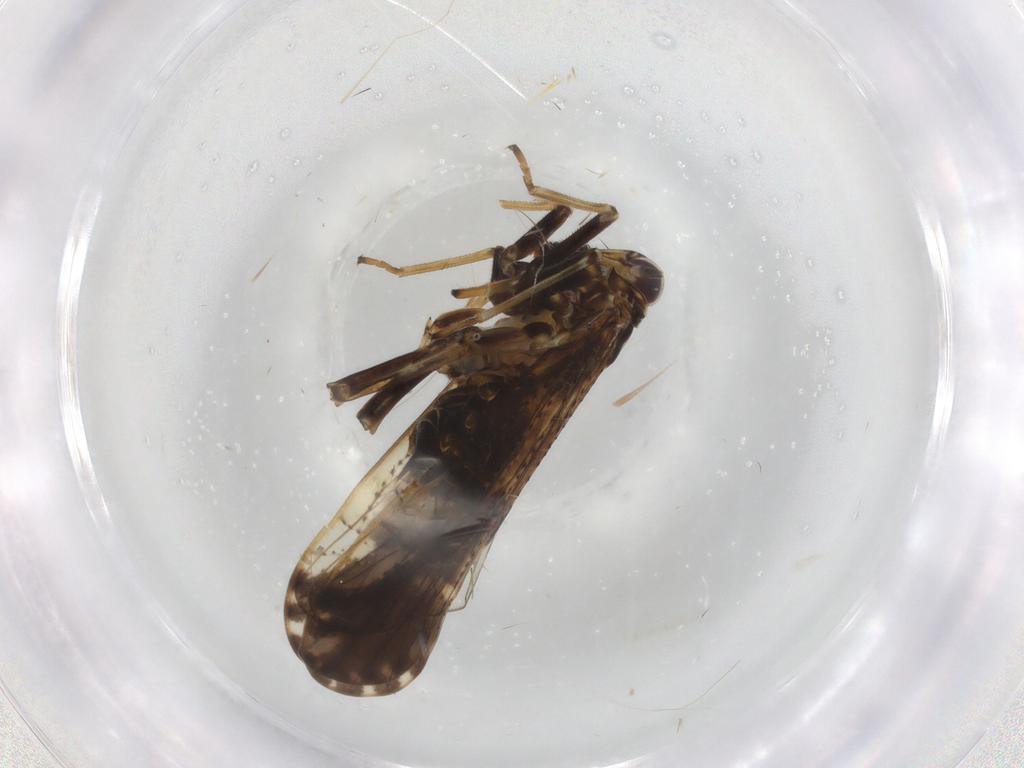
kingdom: Animalia
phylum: Arthropoda
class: Insecta
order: Hemiptera
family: Delphacidae
